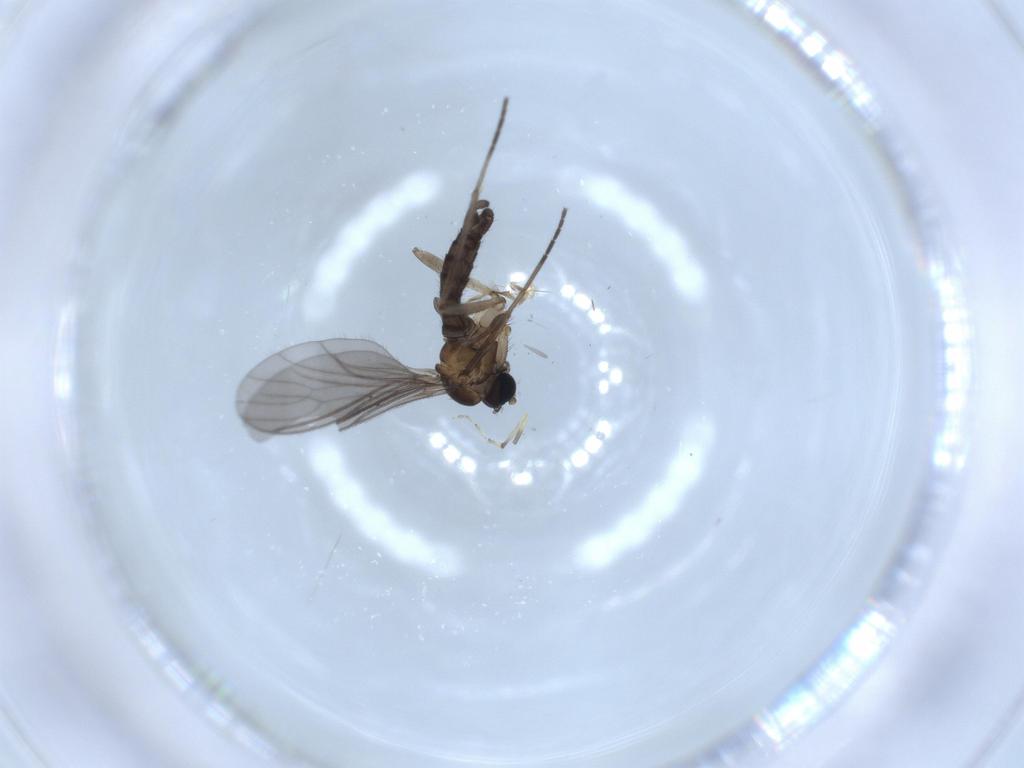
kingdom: Animalia
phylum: Arthropoda
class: Insecta
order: Diptera
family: Sciaridae
